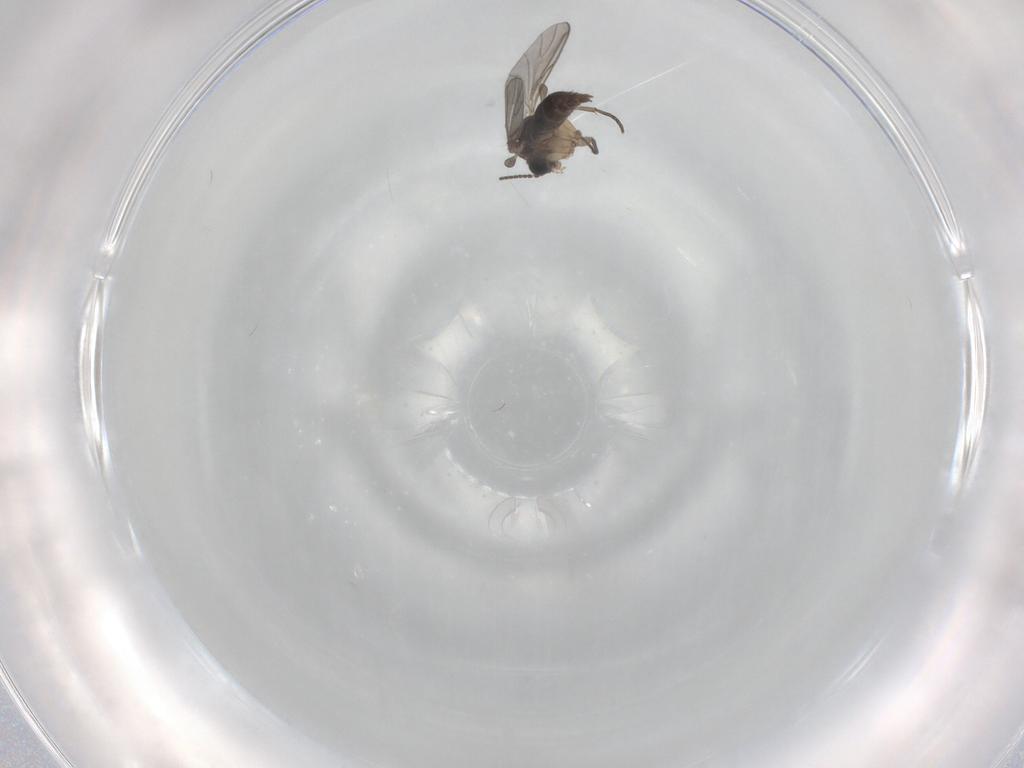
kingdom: Animalia
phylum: Arthropoda
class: Insecta
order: Diptera
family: Sciaridae
